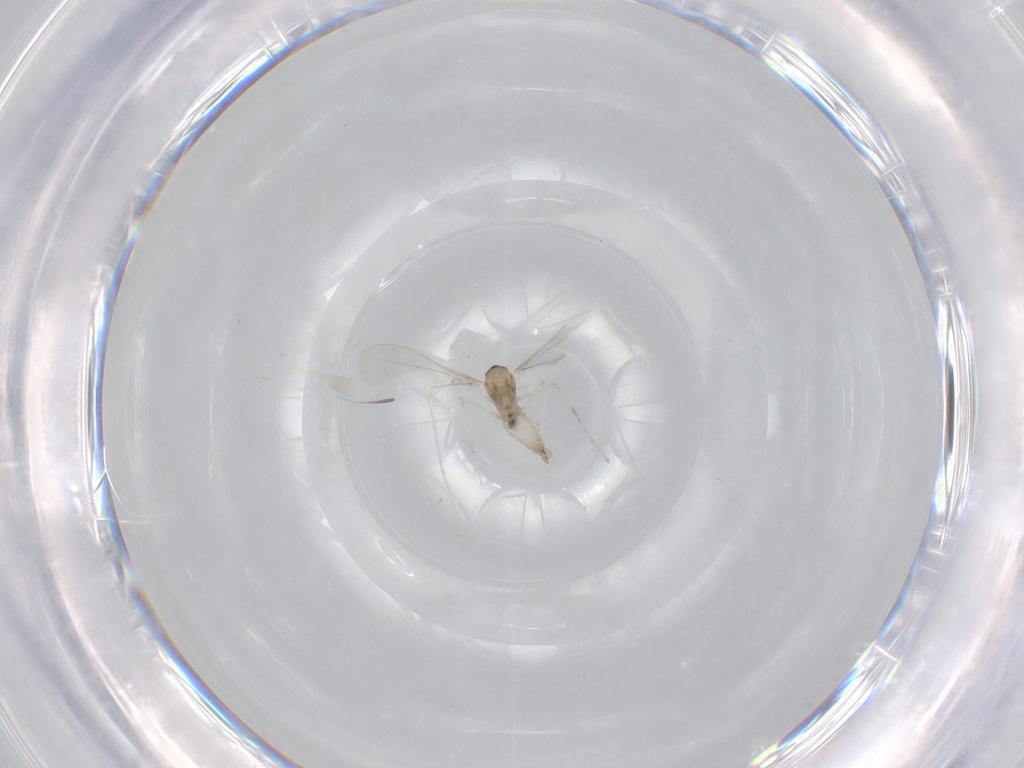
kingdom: Animalia
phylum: Arthropoda
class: Insecta
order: Diptera
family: Cecidomyiidae
